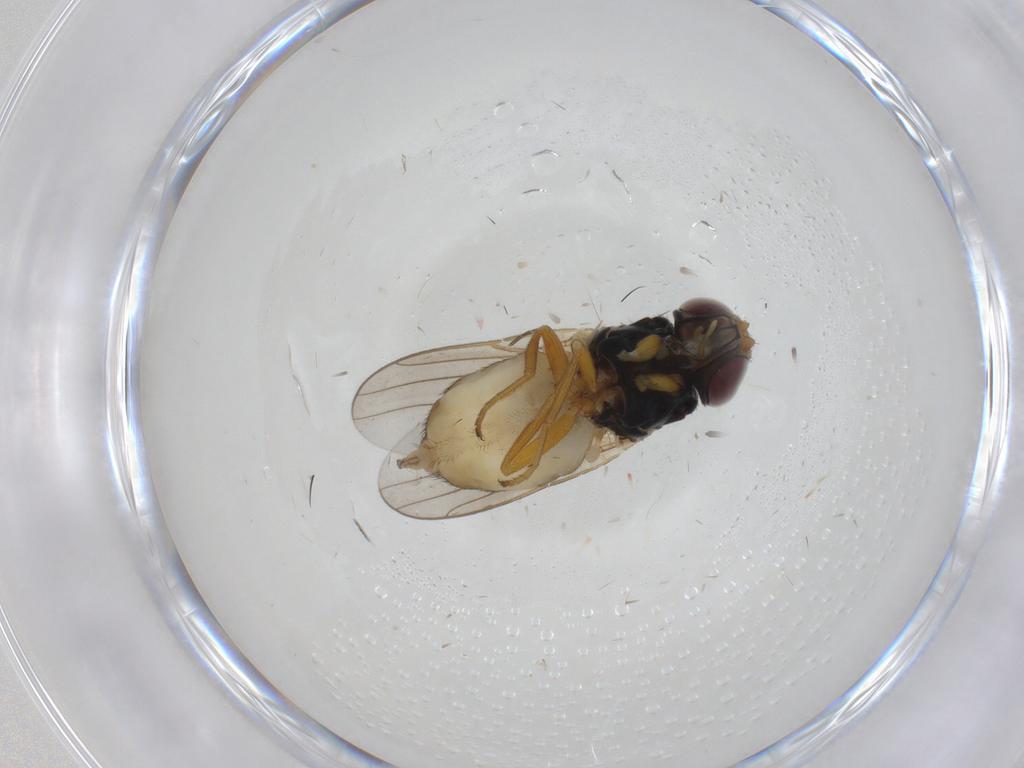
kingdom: Animalia
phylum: Arthropoda
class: Insecta
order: Diptera
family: Chloropidae
